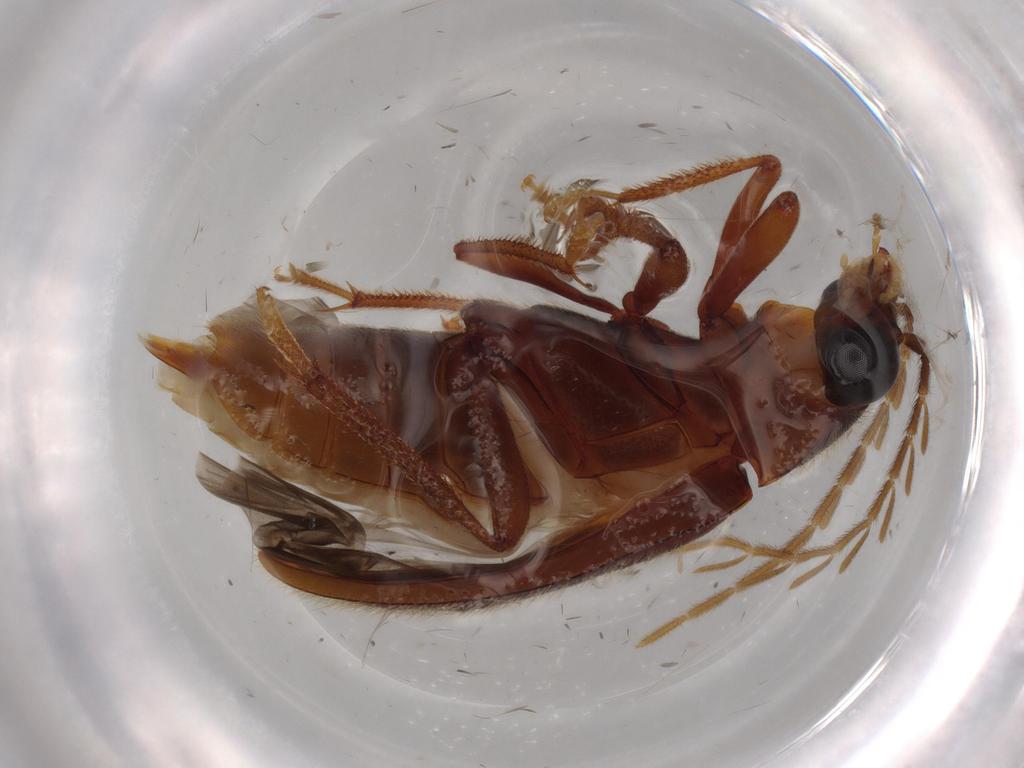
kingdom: Animalia
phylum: Arthropoda
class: Insecta
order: Coleoptera
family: Ptilodactylidae
